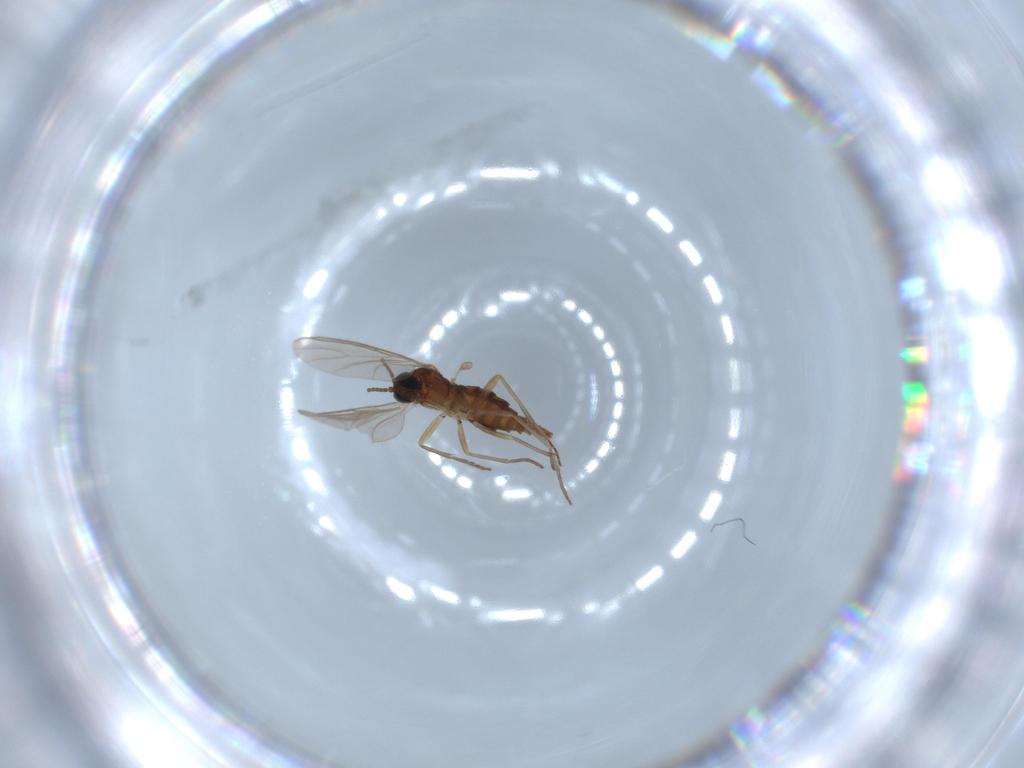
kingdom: Animalia
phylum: Arthropoda
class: Insecta
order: Diptera
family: Sciaridae
